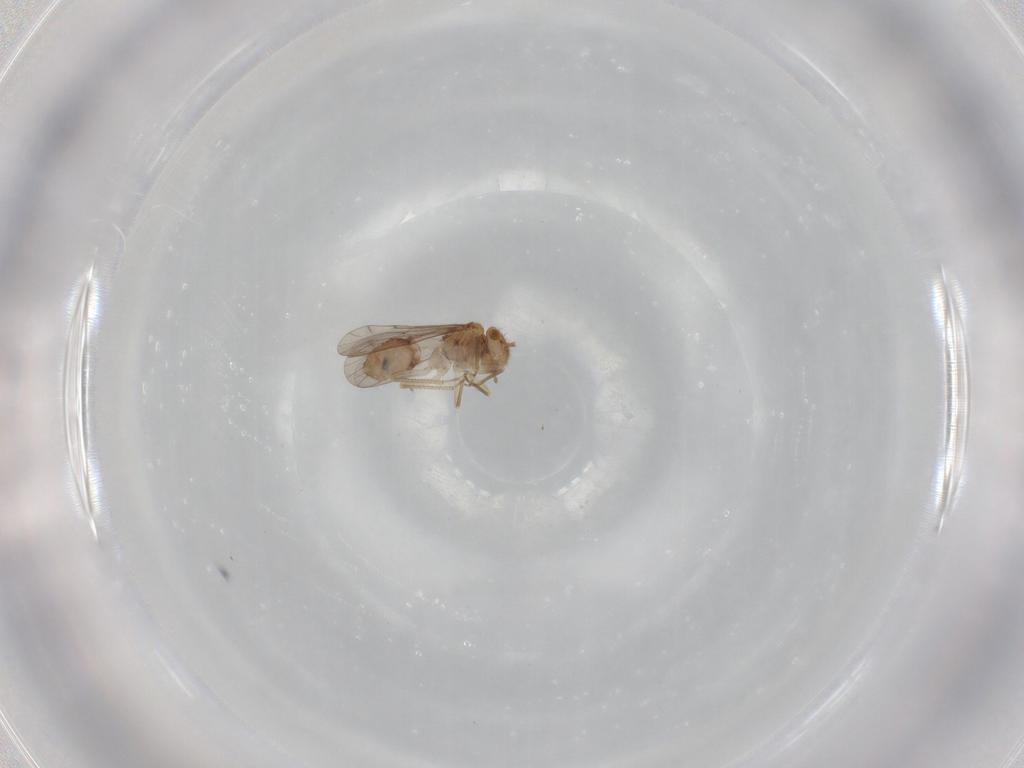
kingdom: Animalia
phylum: Arthropoda
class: Insecta
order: Psocodea
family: Ectopsocidae
